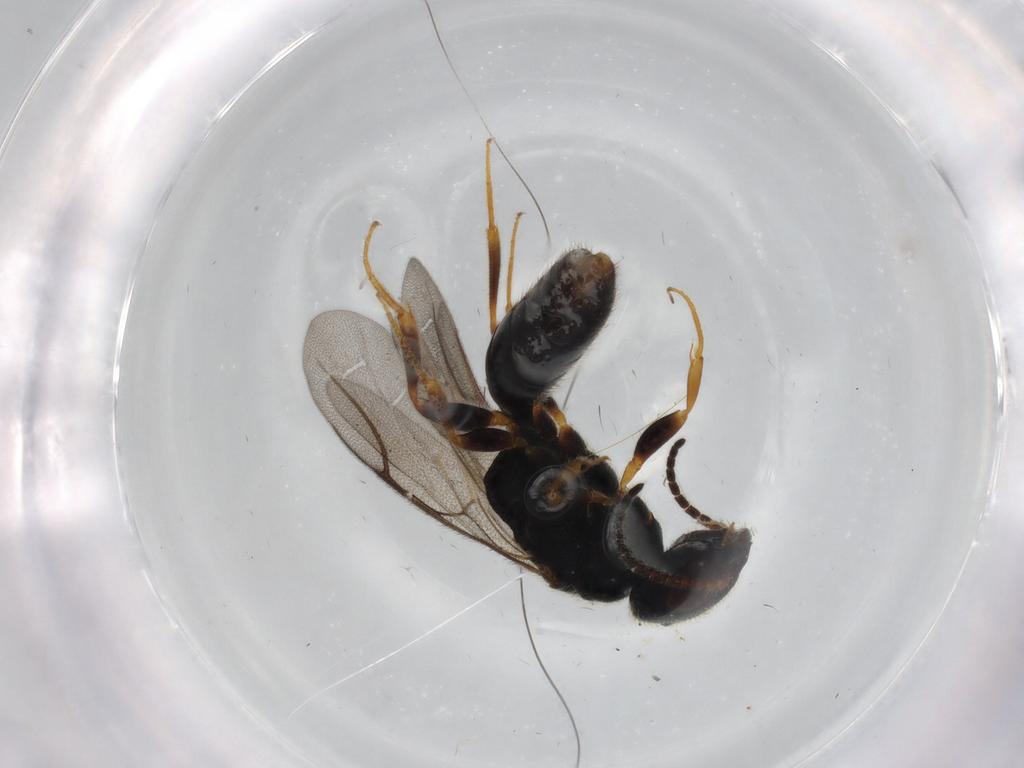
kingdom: Animalia
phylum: Arthropoda
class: Insecta
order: Hymenoptera
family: Bethylidae
